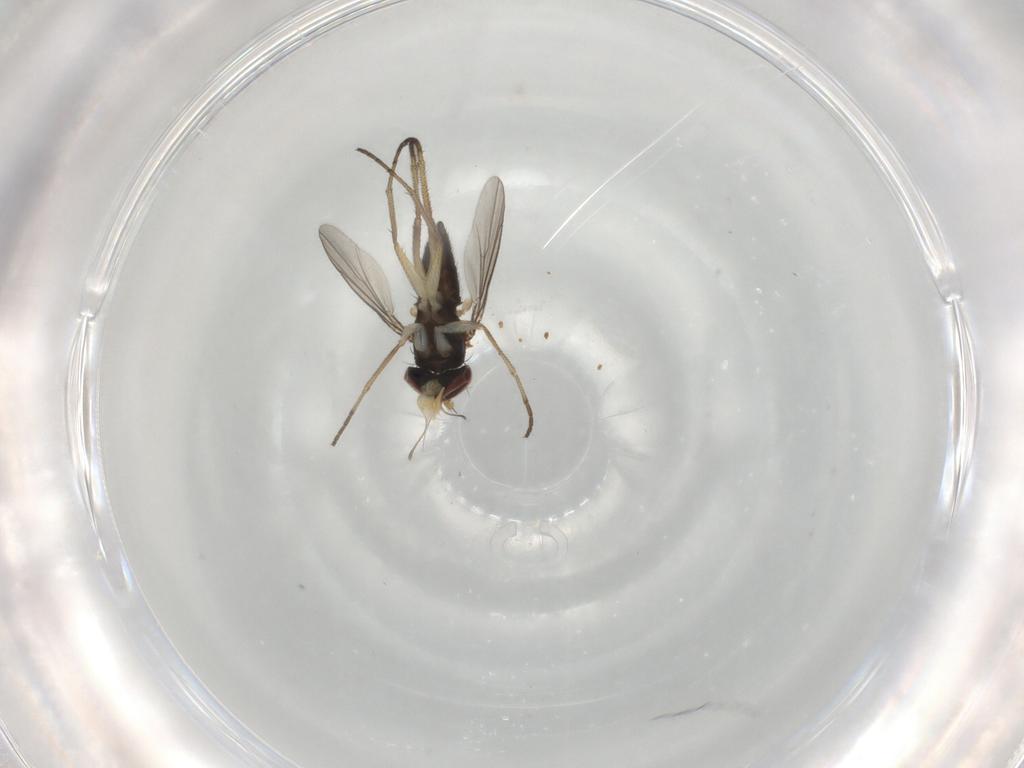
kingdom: Animalia
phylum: Arthropoda
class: Insecta
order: Diptera
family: Dolichopodidae
